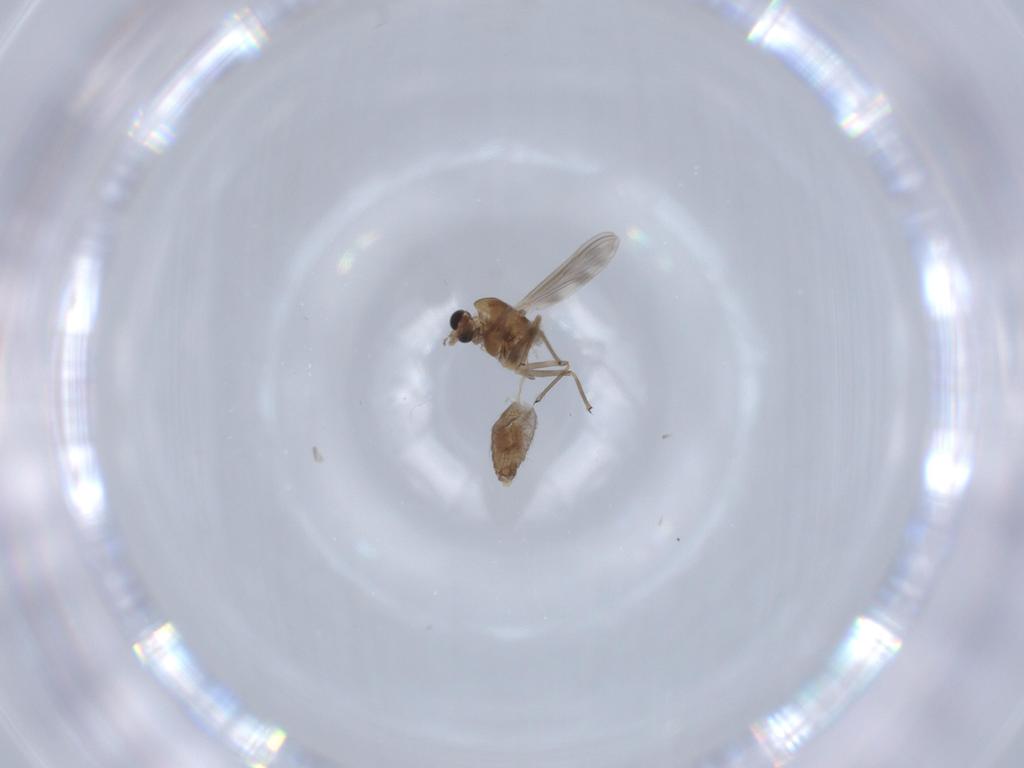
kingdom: Animalia
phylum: Arthropoda
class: Insecta
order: Diptera
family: Chironomidae
